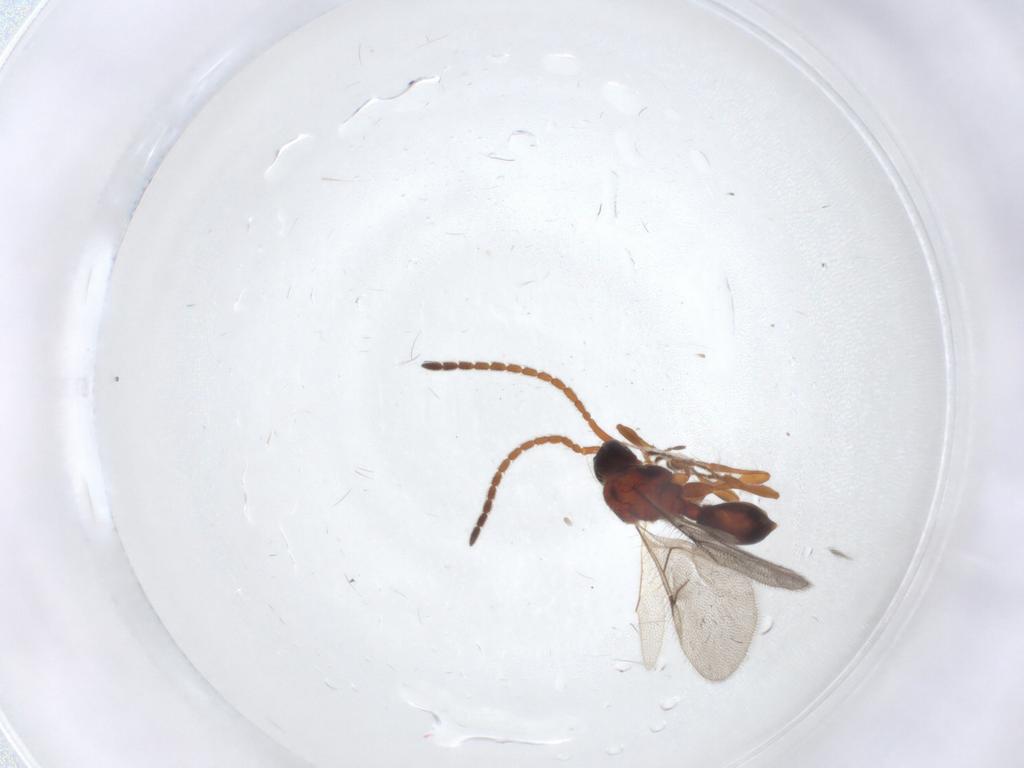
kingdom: Animalia
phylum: Arthropoda
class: Insecta
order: Hymenoptera
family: Diapriidae
